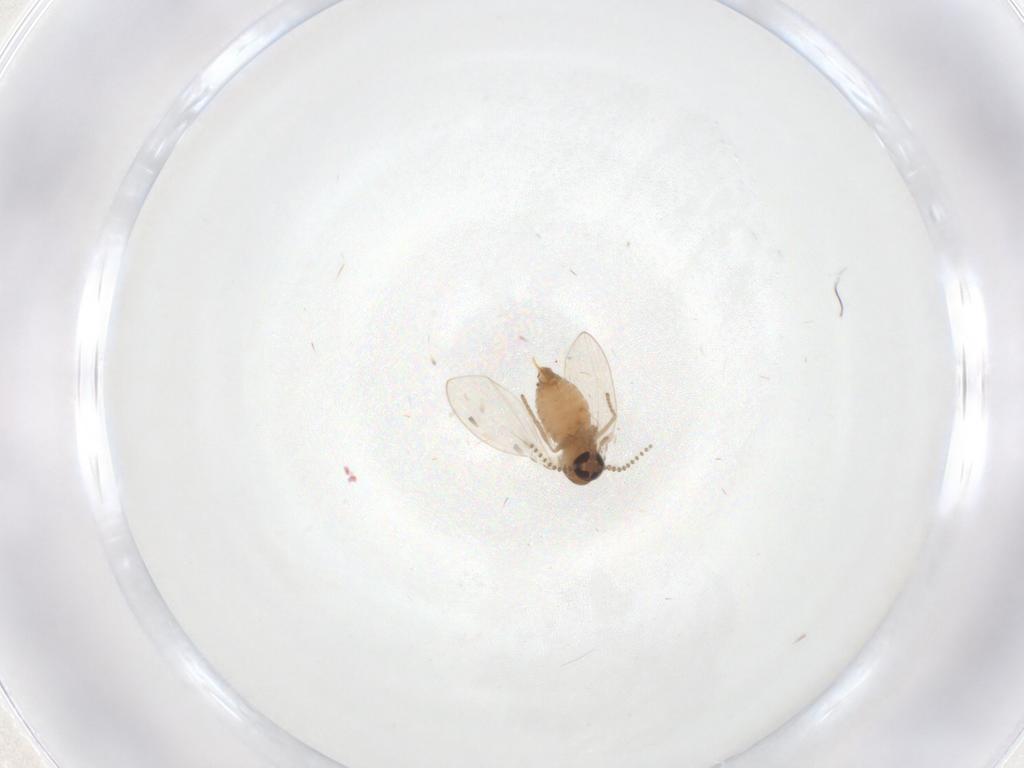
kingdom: Animalia
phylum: Arthropoda
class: Insecta
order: Diptera
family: Psychodidae
